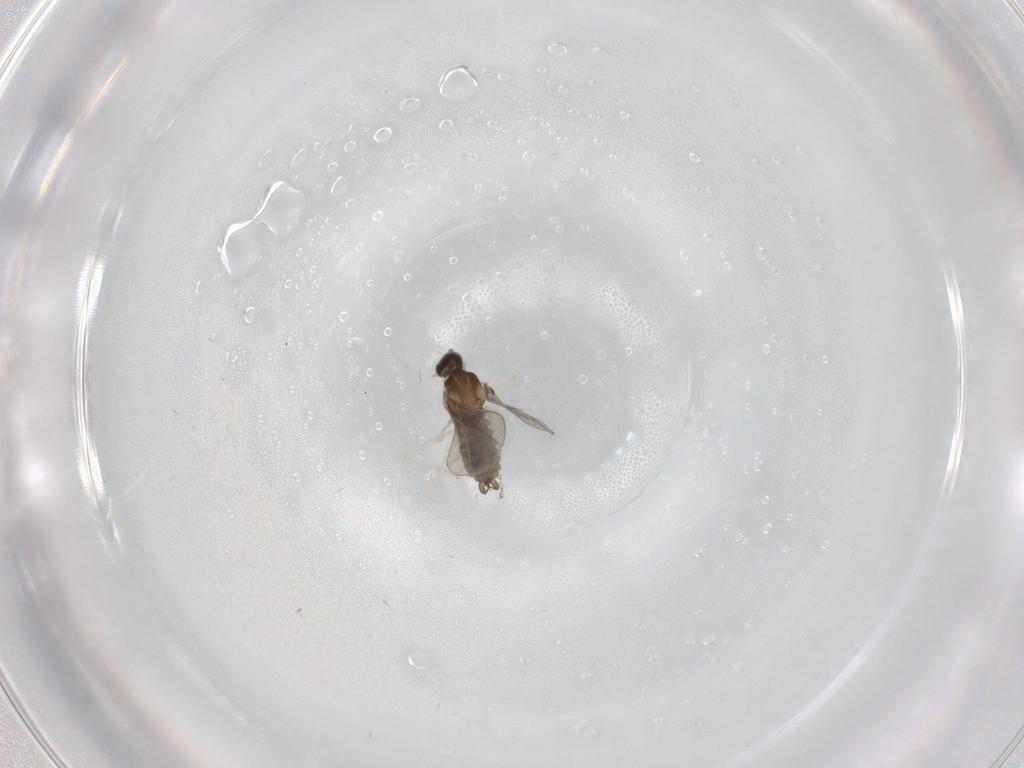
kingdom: Animalia
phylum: Arthropoda
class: Insecta
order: Diptera
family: Cecidomyiidae
